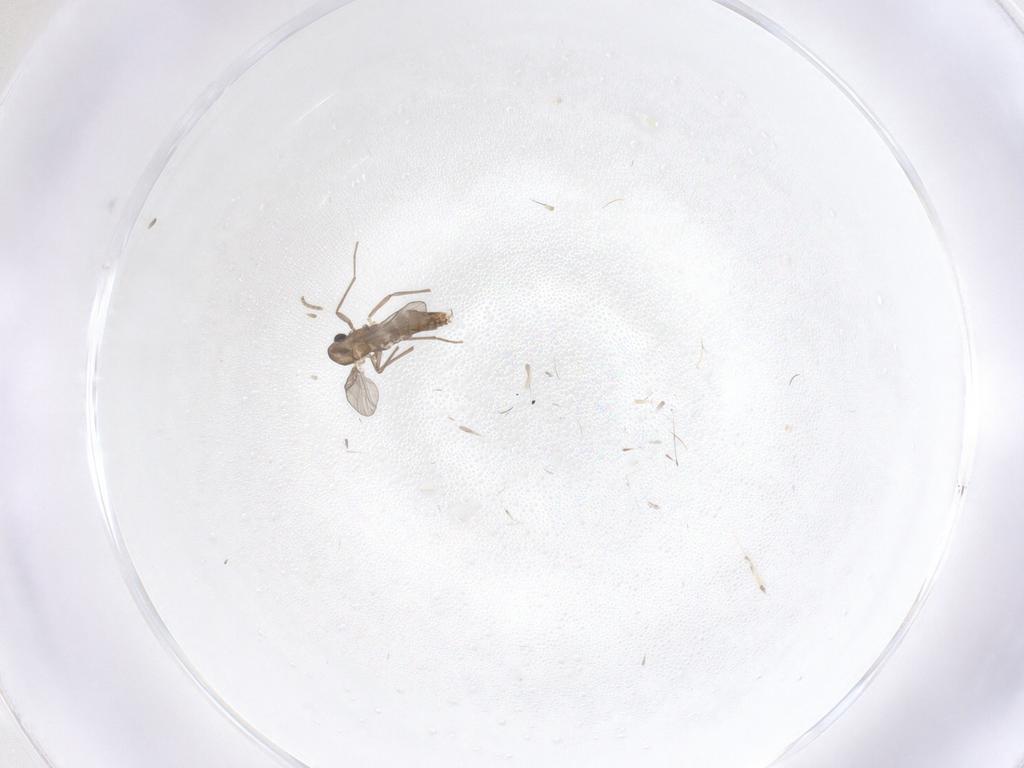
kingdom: Animalia
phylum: Arthropoda
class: Insecta
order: Diptera
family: Chironomidae
